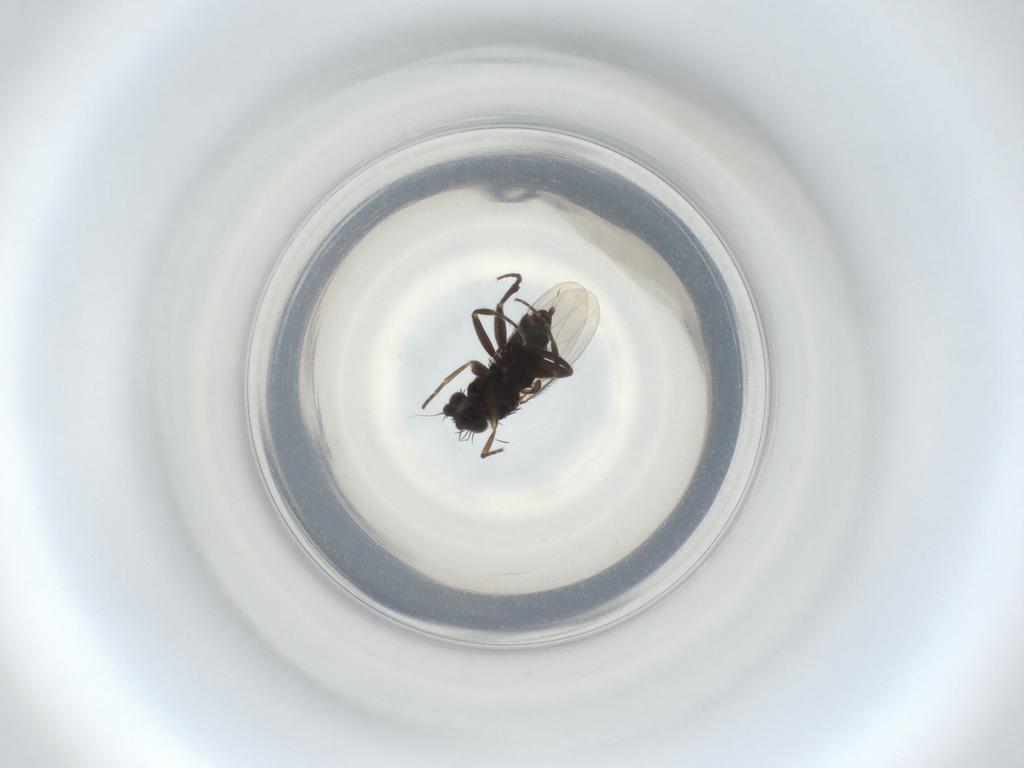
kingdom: Animalia
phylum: Arthropoda
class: Insecta
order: Diptera
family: Phoridae
